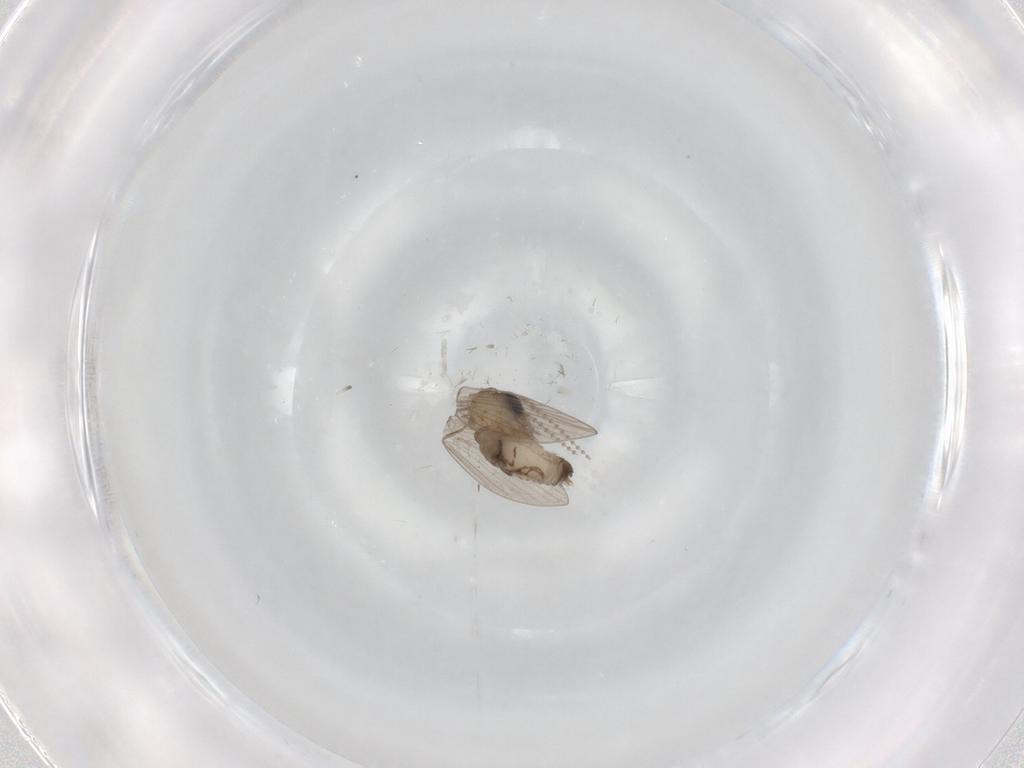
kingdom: Animalia
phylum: Arthropoda
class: Insecta
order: Diptera
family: Psychodidae
